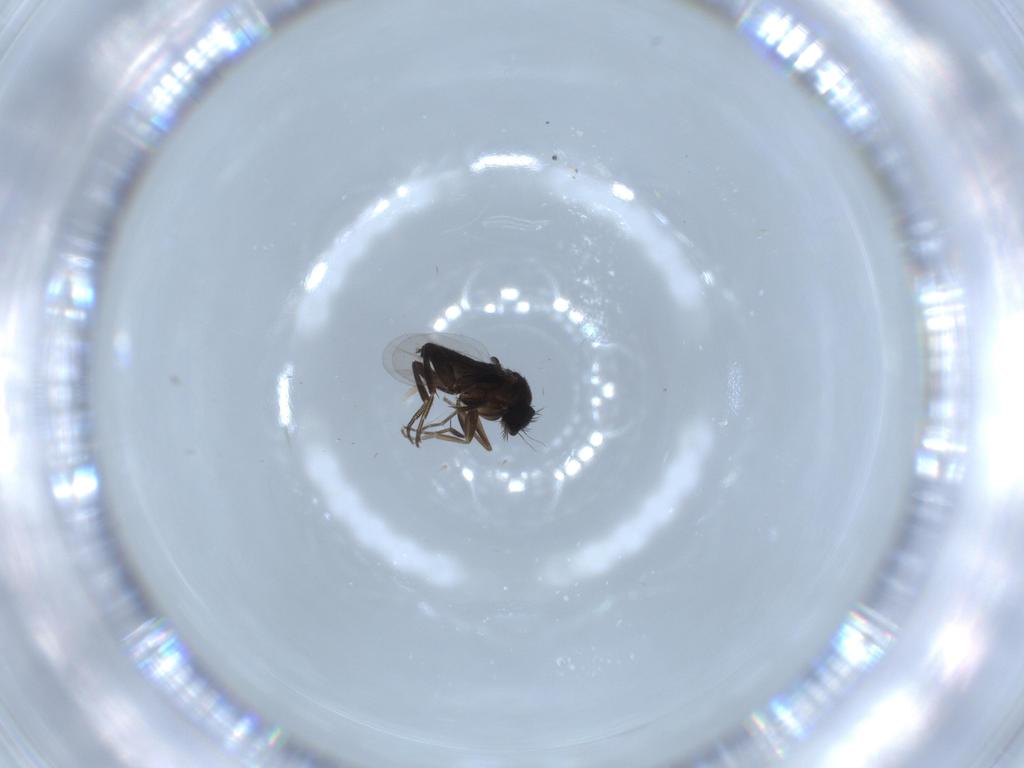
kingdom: Animalia
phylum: Arthropoda
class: Insecta
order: Diptera
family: Phoridae
